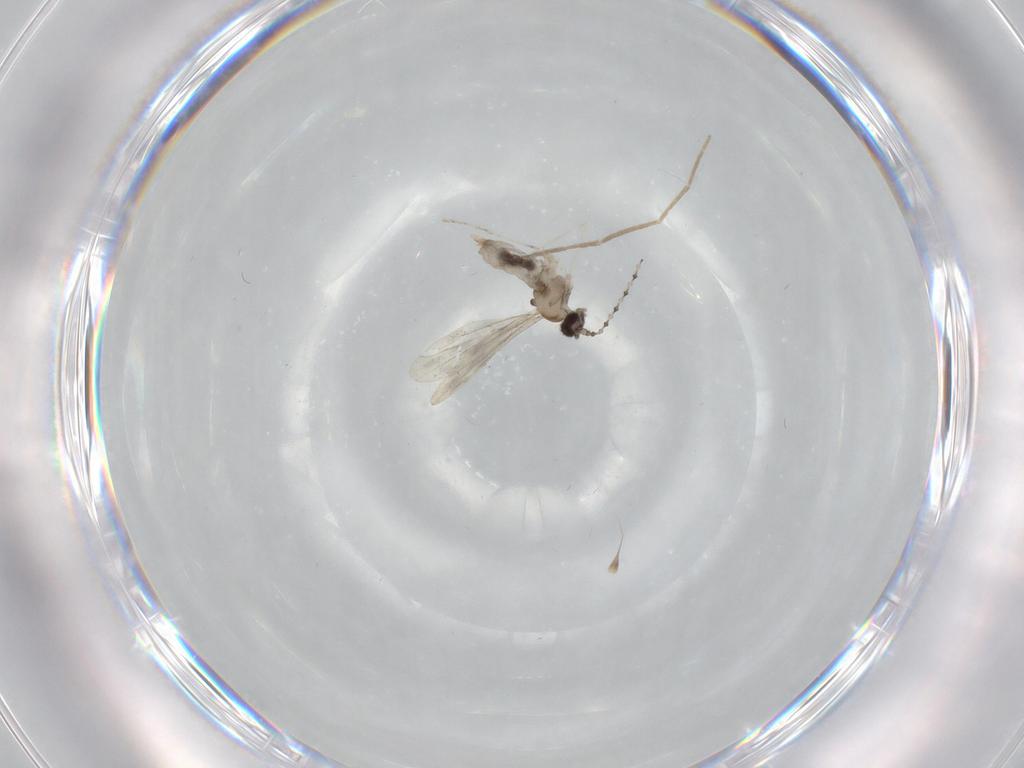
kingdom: Animalia
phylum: Arthropoda
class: Insecta
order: Diptera
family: Cecidomyiidae
